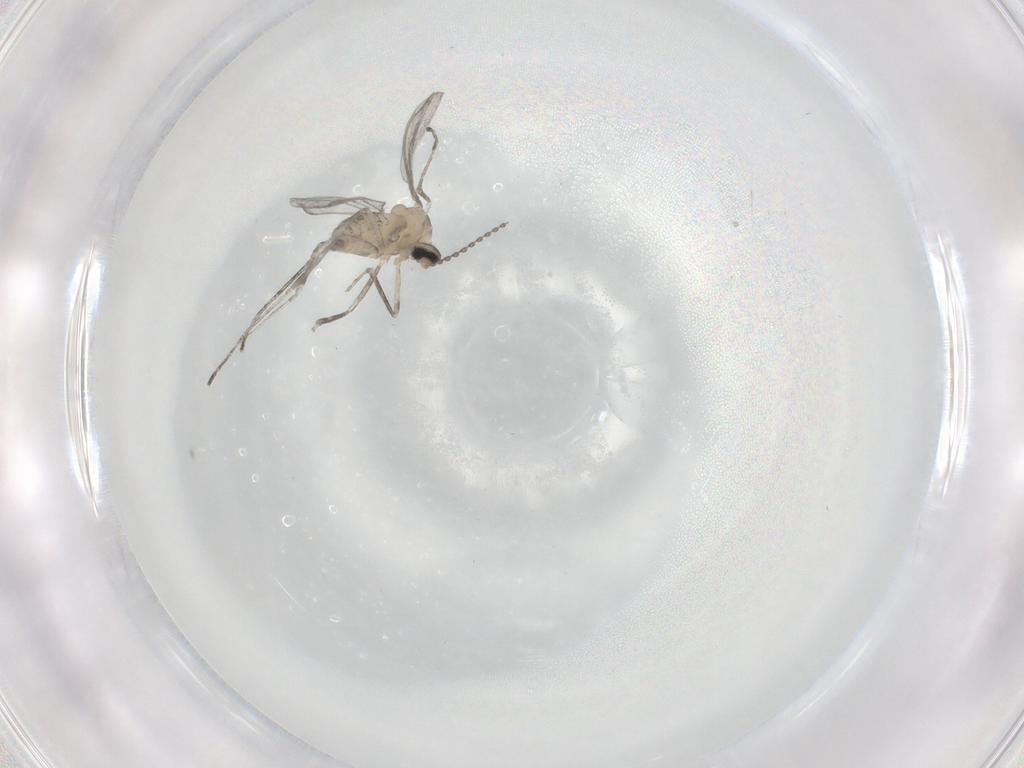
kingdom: Animalia
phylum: Arthropoda
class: Insecta
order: Diptera
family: Cecidomyiidae
